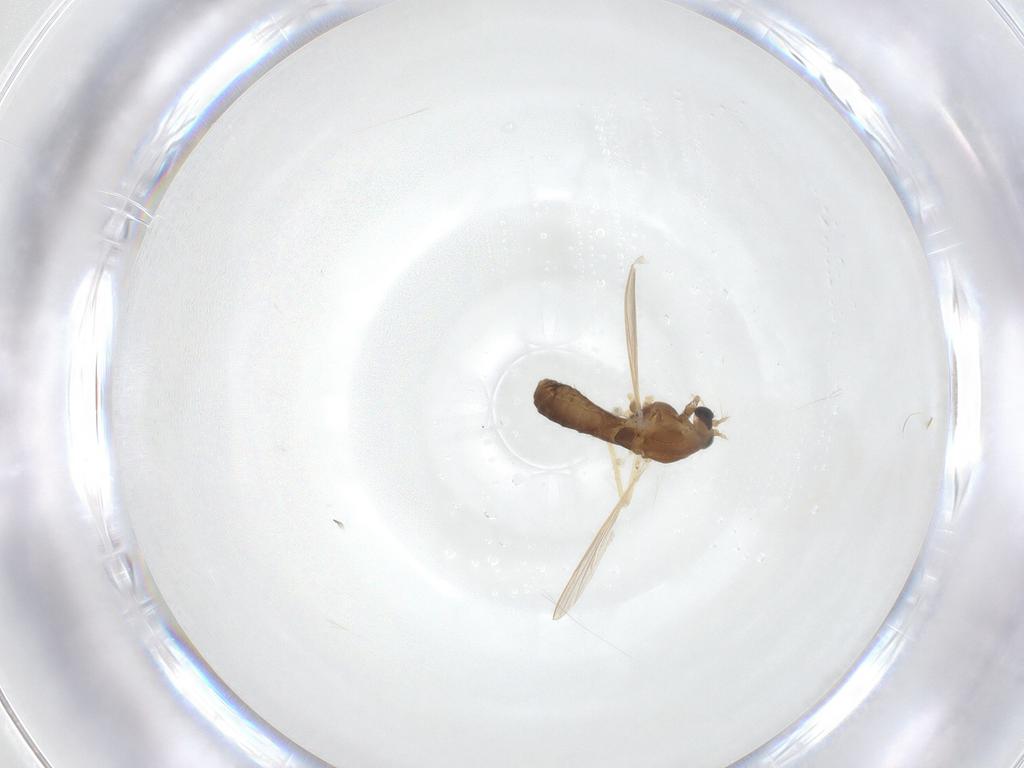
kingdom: Animalia
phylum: Arthropoda
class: Insecta
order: Diptera
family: Chironomidae
